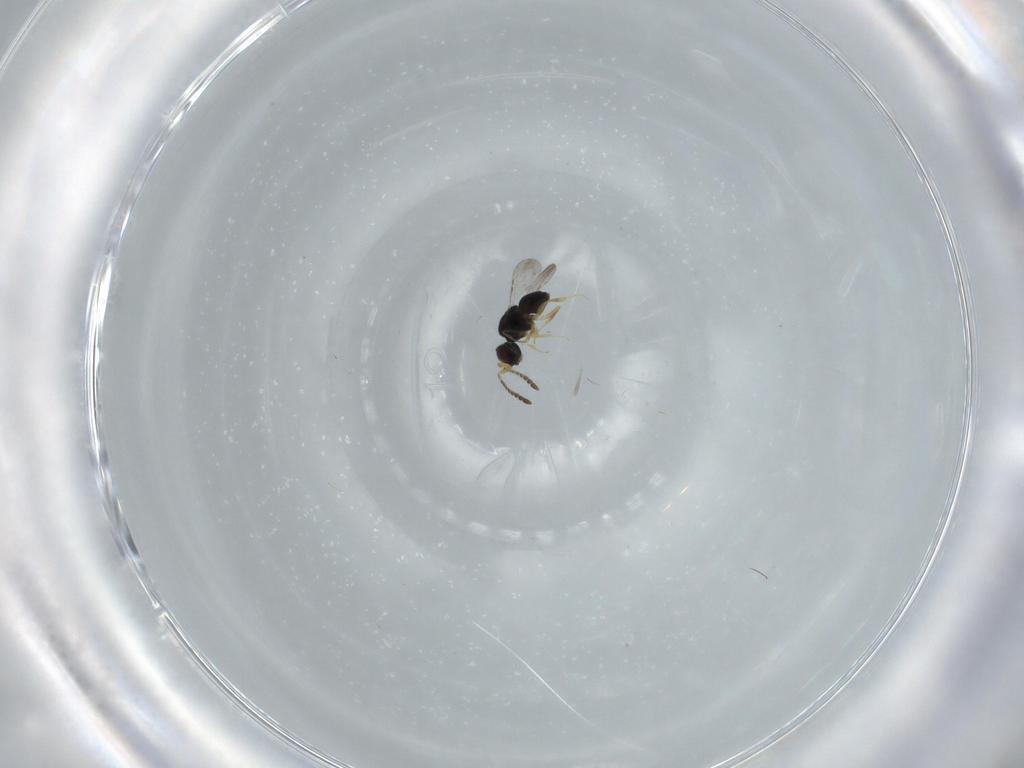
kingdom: Animalia
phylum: Arthropoda
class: Insecta
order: Hymenoptera
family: Ceraphronidae
